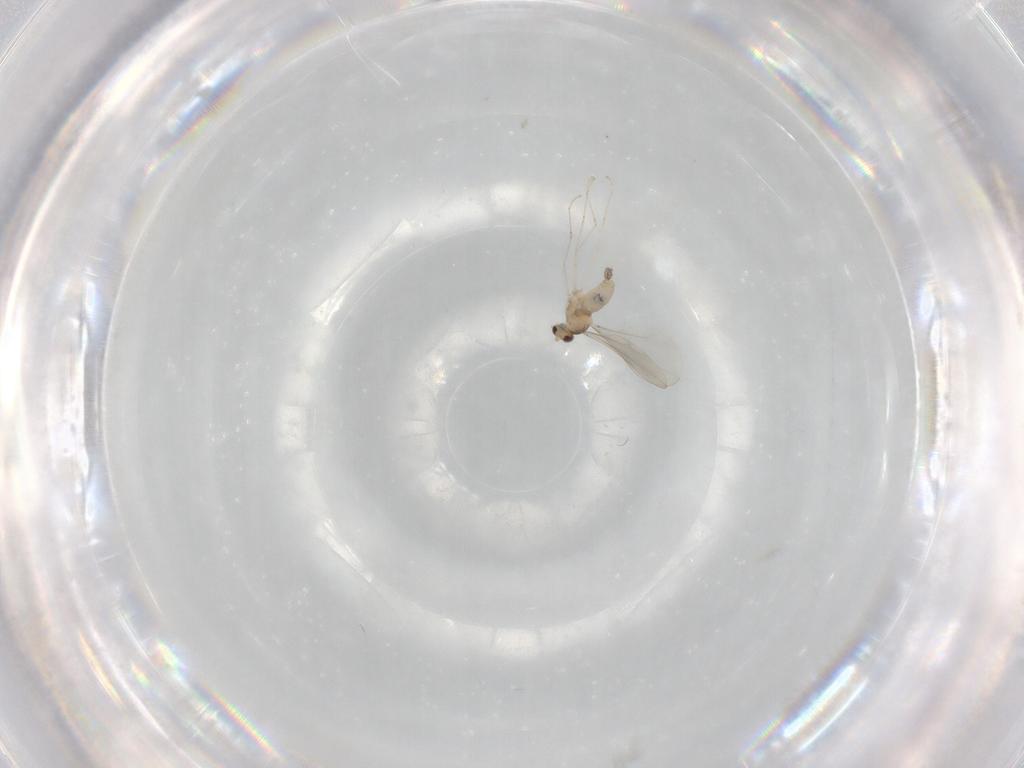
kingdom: Animalia
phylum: Arthropoda
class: Insecta
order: Diptera
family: Cecidomyiidae
